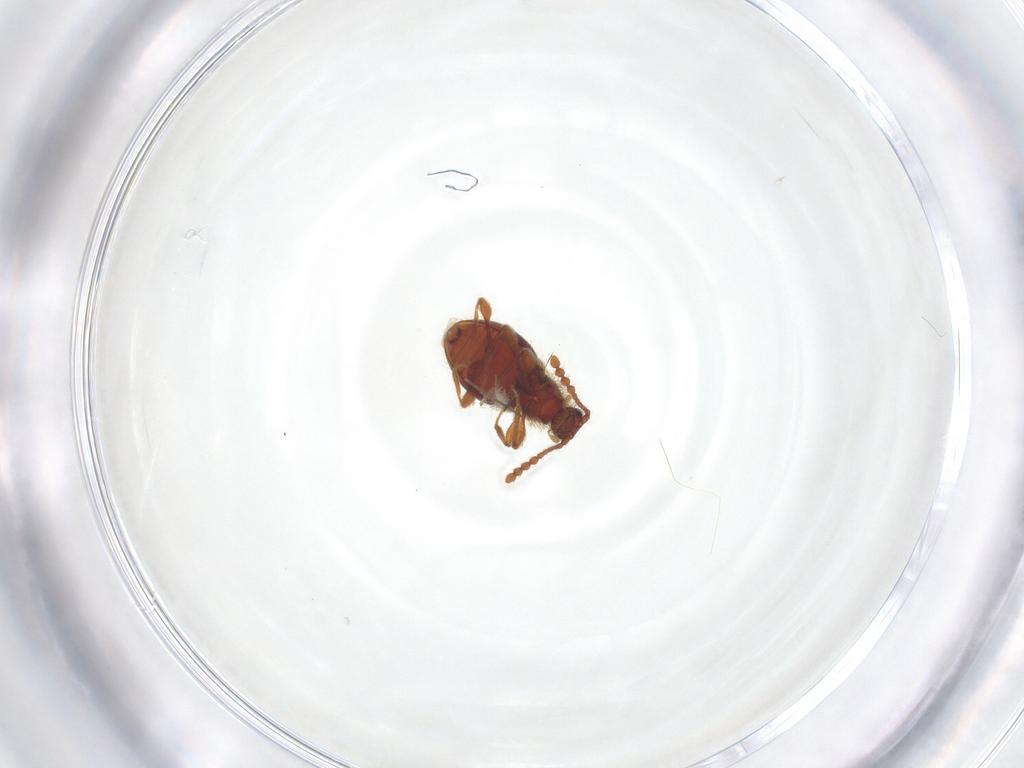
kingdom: Animalia
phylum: Arthropoda
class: Insecta
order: Coleoptera
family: Staphylinidae
